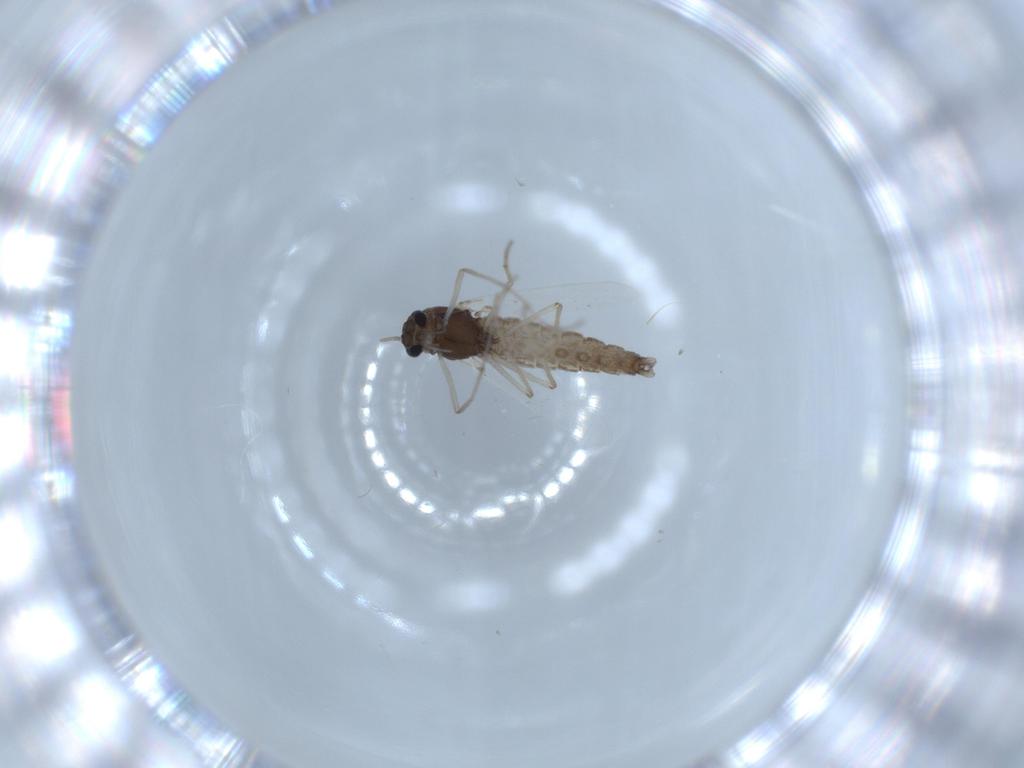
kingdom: Animalia
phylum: Arthropoda
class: Insecta
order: Diptera
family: Chironomidae
